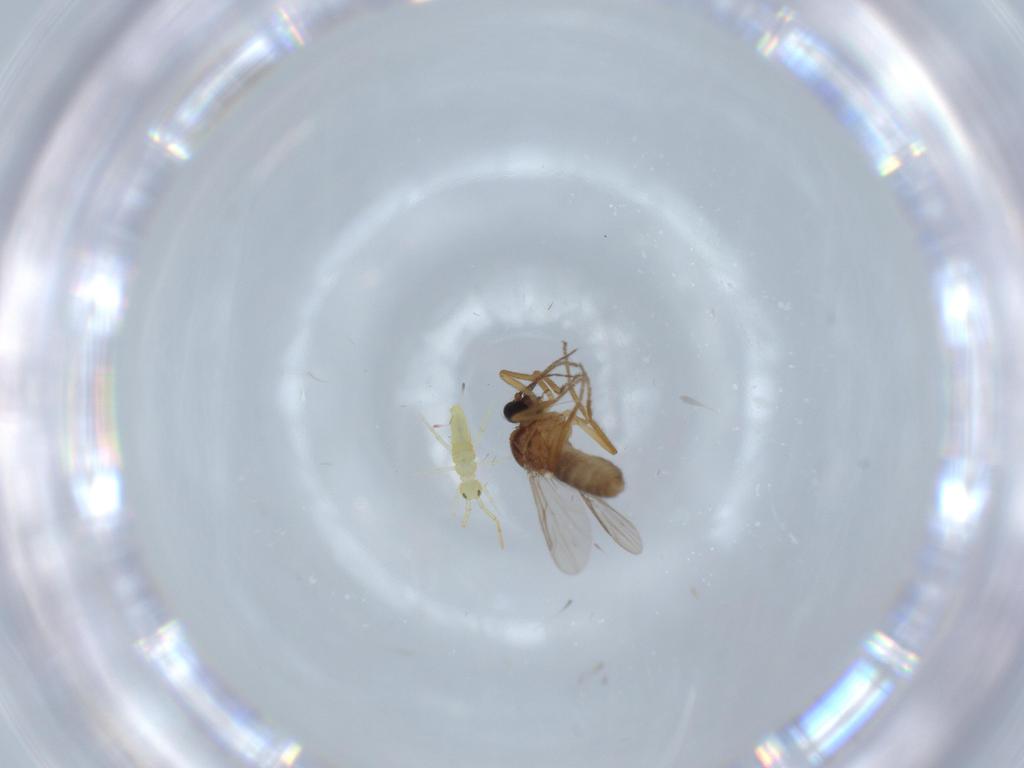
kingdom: Animalia
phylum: Arthropoda
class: Insecta
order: Diptera
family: Ceratopogonidae
